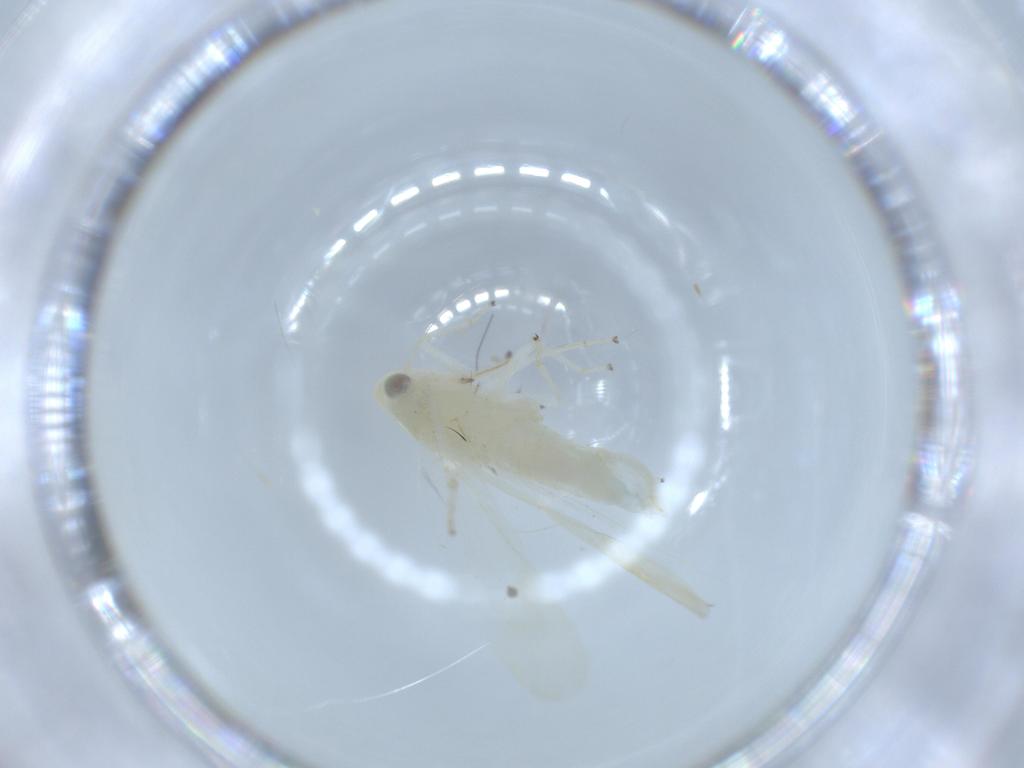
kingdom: Animalia
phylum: Arthropoda
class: Insecta
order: Hemiptera
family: Cicadellidae
